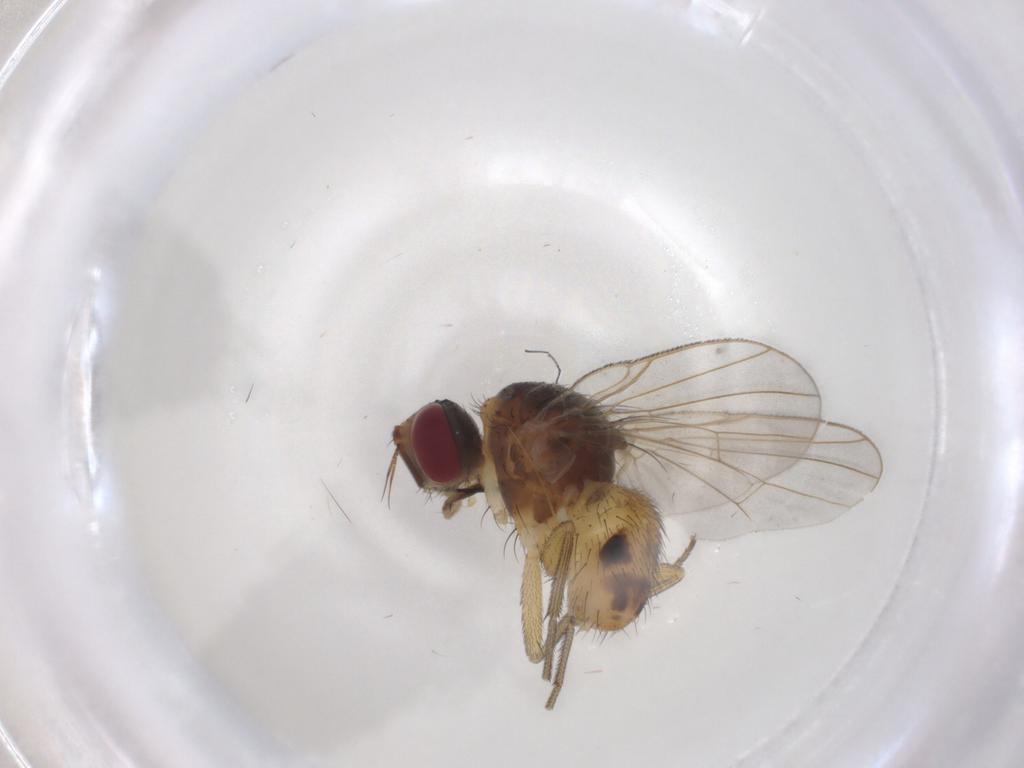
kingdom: Animalia
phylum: Arthropoda
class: Insecta
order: Diptera
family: Muscidae
